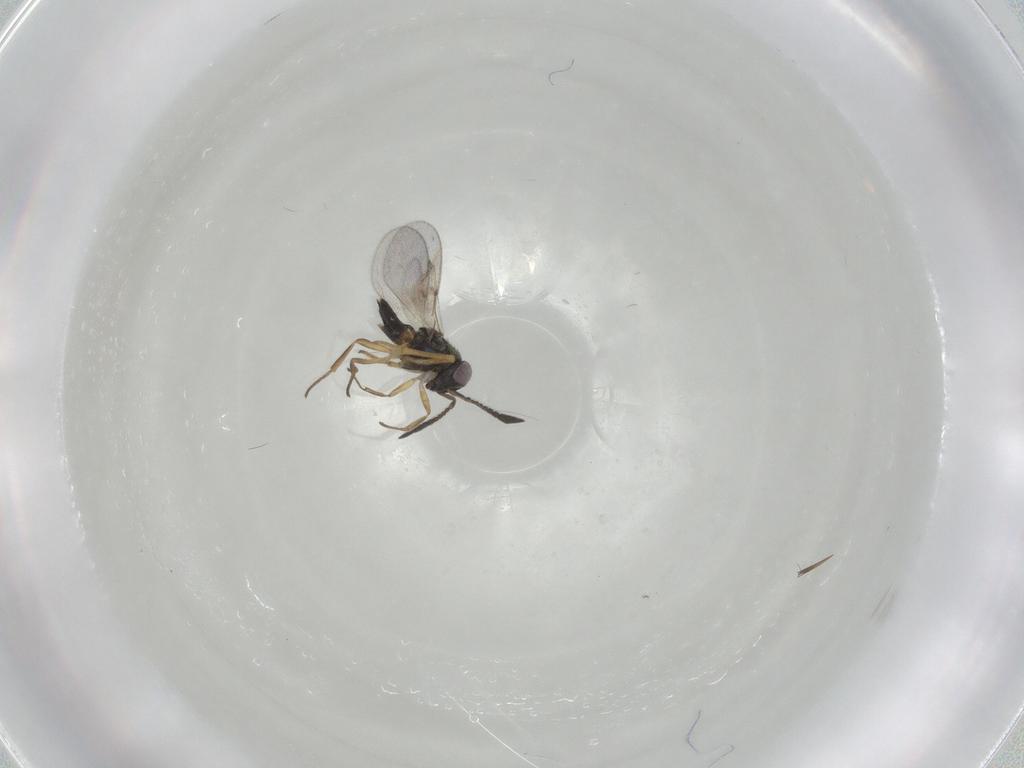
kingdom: Animalia
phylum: Arthropoda
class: Insecta
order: Hymenoptera
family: Encyrtidae
